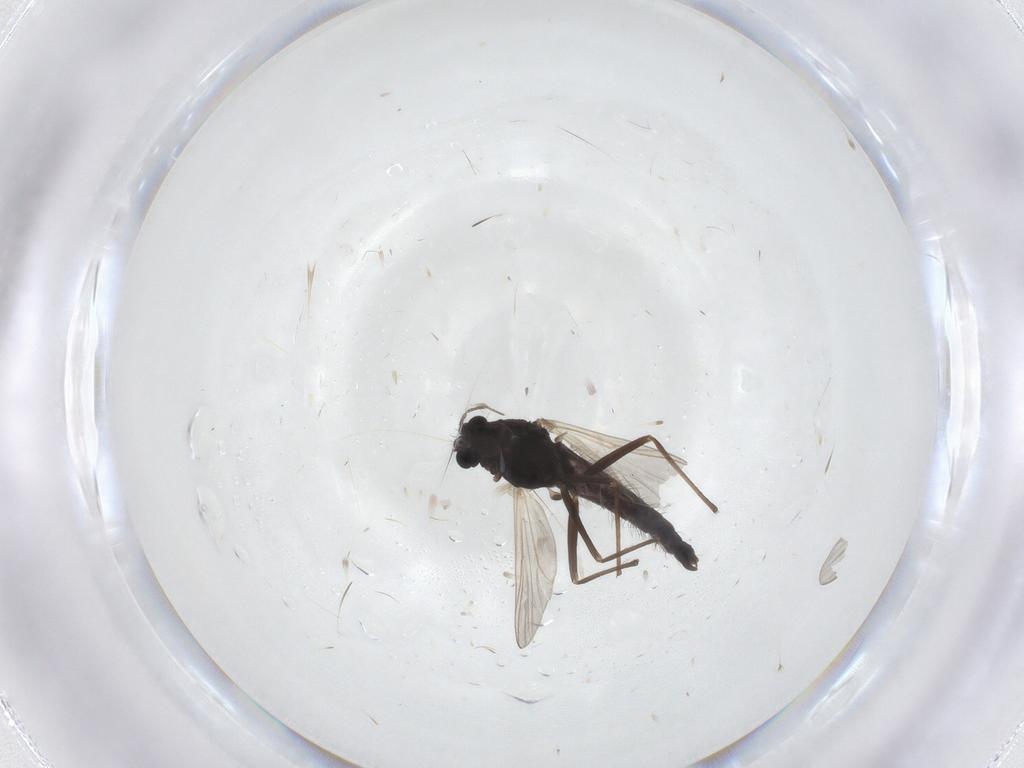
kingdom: Animalia
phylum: Arthropoda
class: Insecta
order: Diptera
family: Chironomidae
